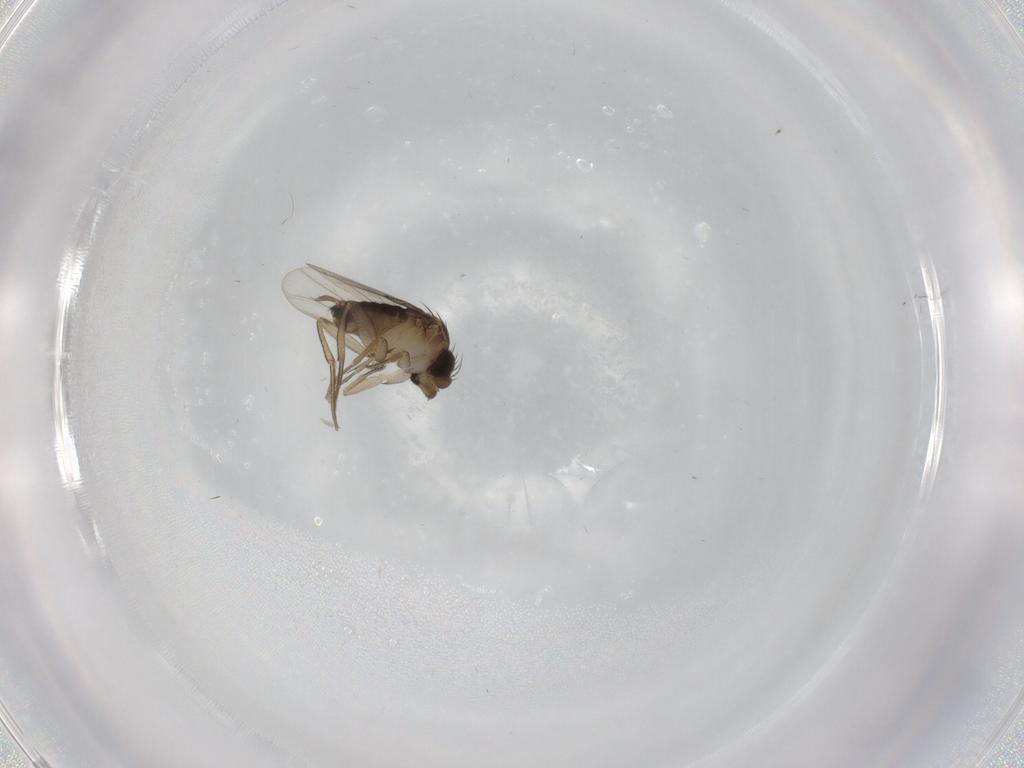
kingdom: Animalia
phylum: Arthropoda
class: Insecta
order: Diptera
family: Phoridae
